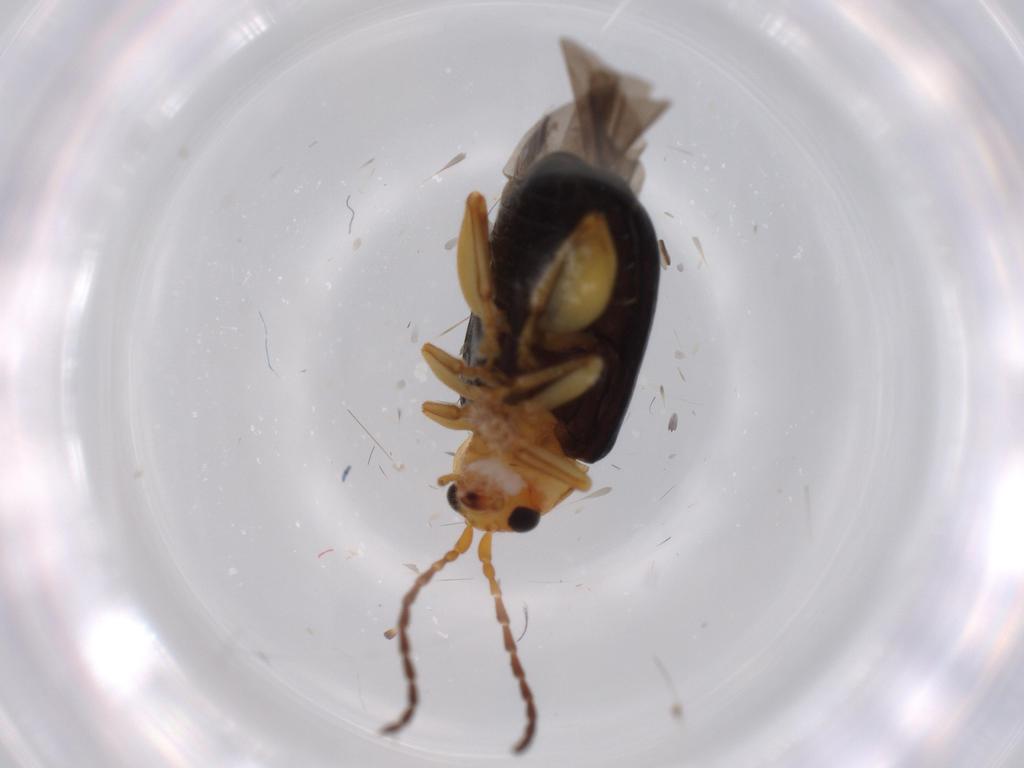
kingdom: Animalia
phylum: Arthropoda
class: Insecta
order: Coleoptera
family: Chrysomelidae
